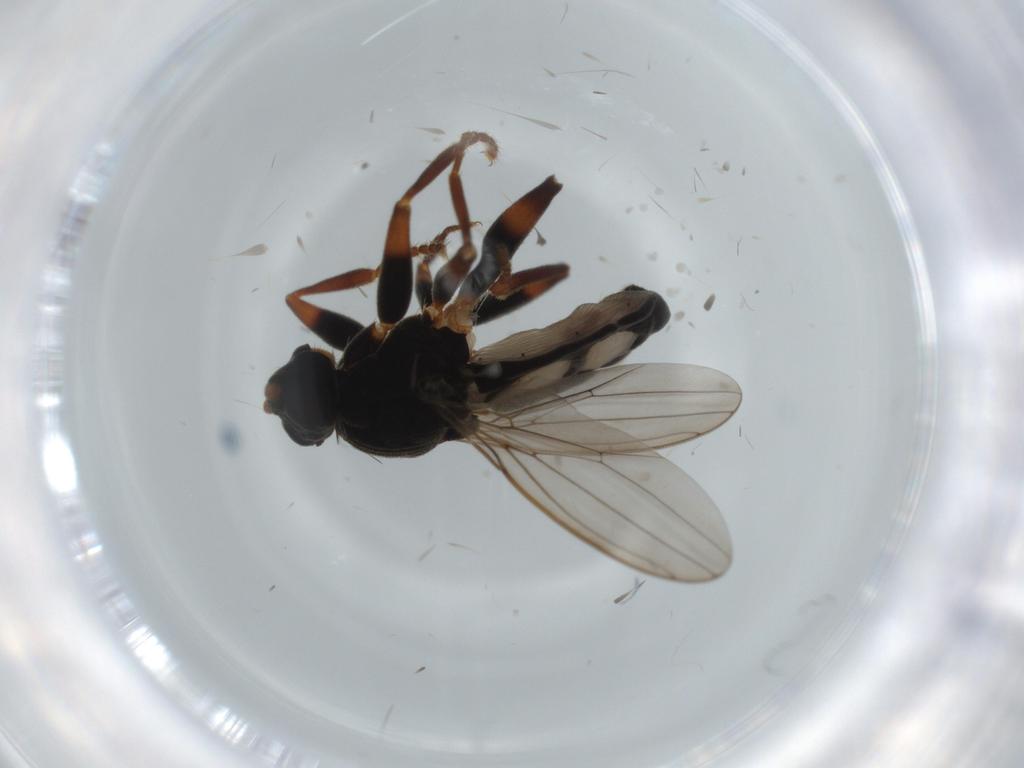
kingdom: Animalia
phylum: Arthropoda
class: Insecta
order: Diptera
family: Sphaeroceridae
